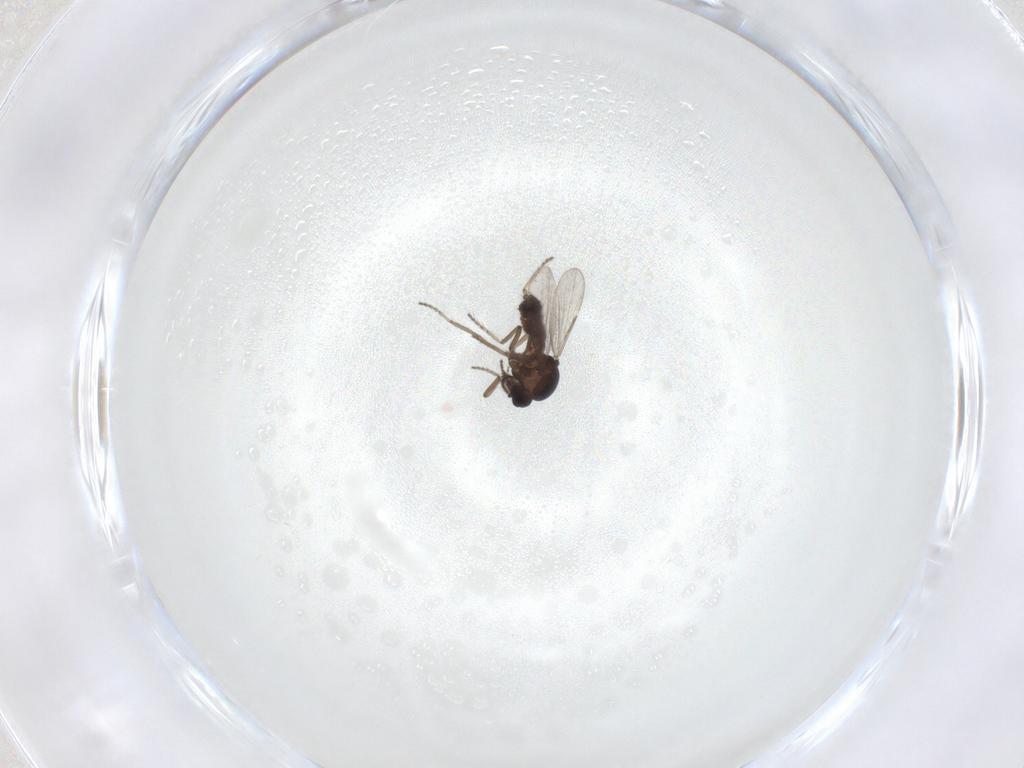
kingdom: Animalia
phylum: Arthropoda
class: Insecta
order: Diptera
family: Ceratopogonidae
